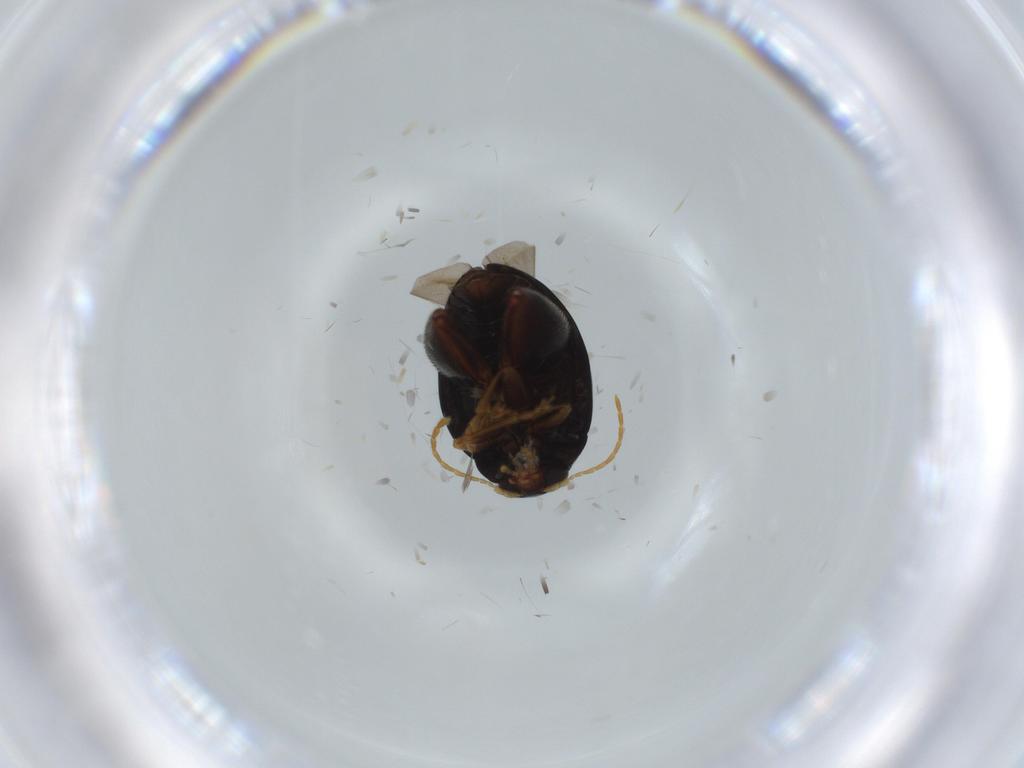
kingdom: Animalia
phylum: Arthropoda
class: Insecta
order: Coleoptera
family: Chrysomelidae
